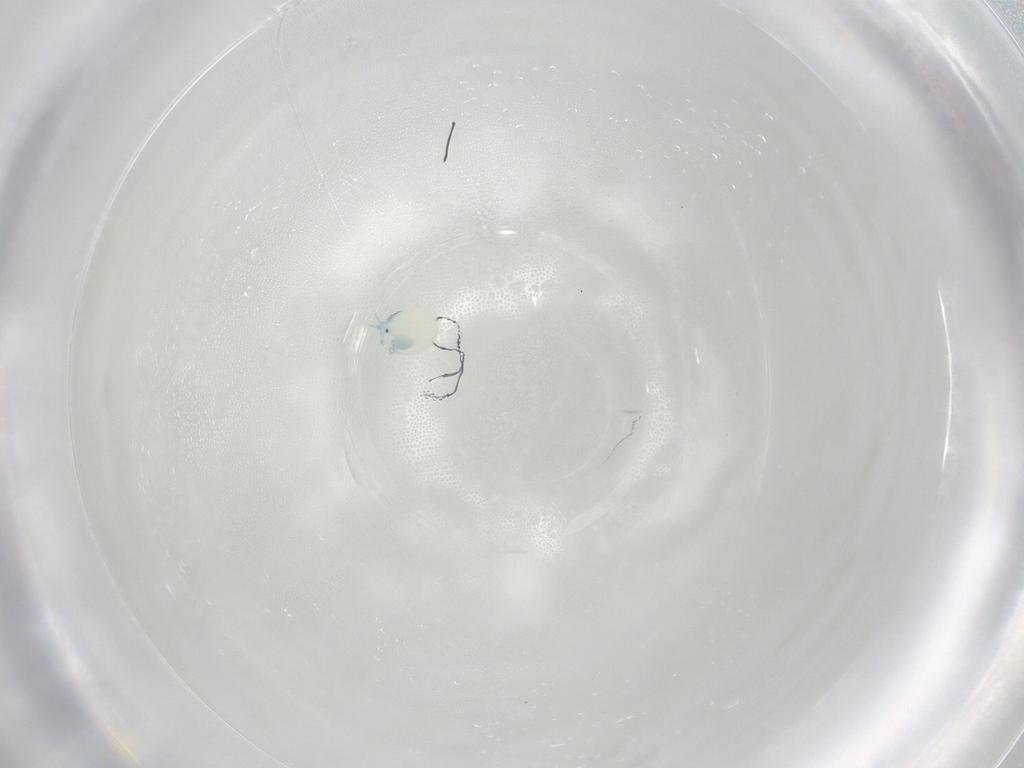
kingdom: Animalia
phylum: Arthropoda
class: Arachnida
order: Trombidiformes
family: Arrenuridae
